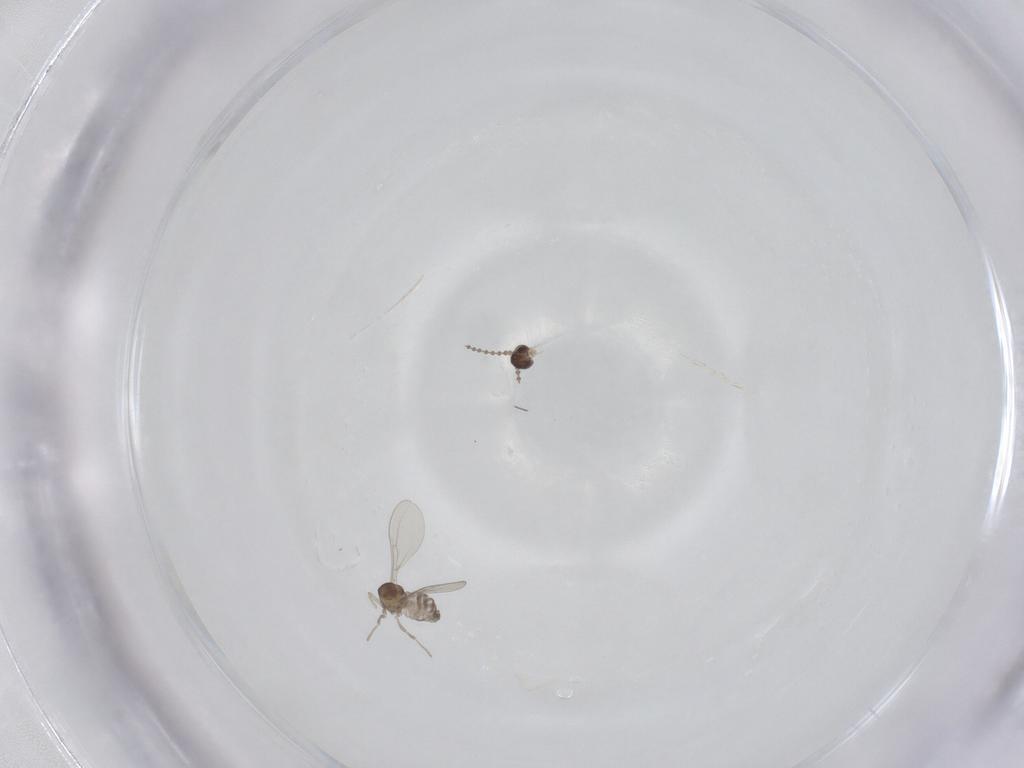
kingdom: Animalia
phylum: Arthropoda
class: Insecta
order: Diptera
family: Cecidomyiidae
